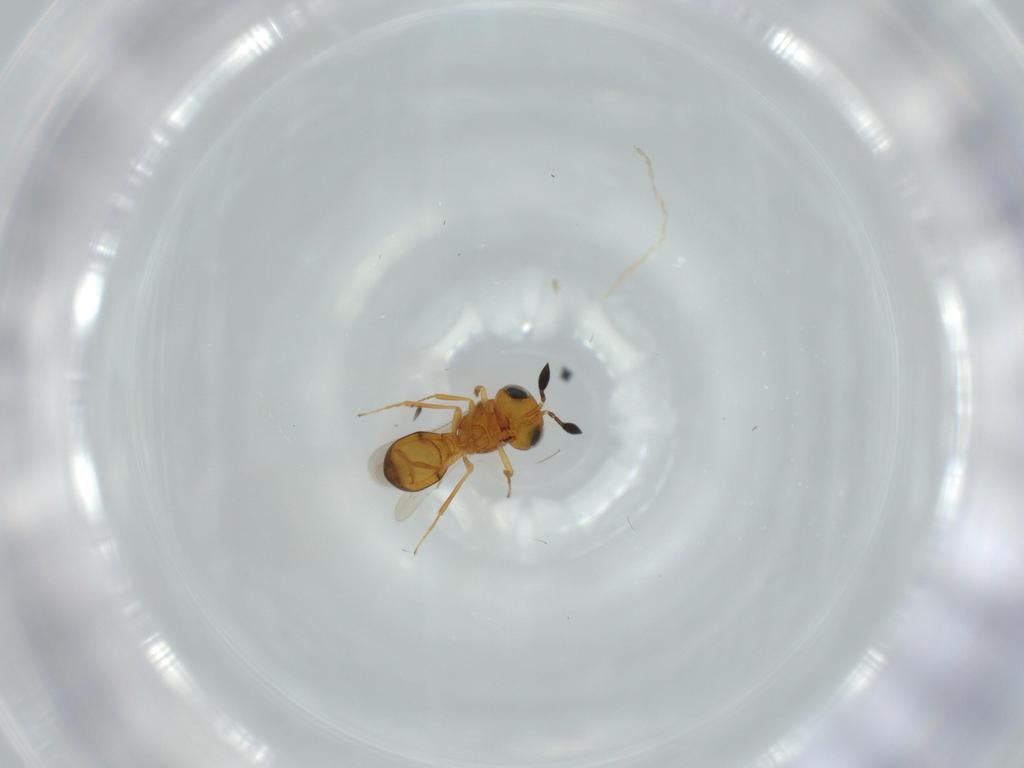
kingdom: Animalia
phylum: Arthropoda
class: Insecta
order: Hymenoptera
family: Scelionidae
